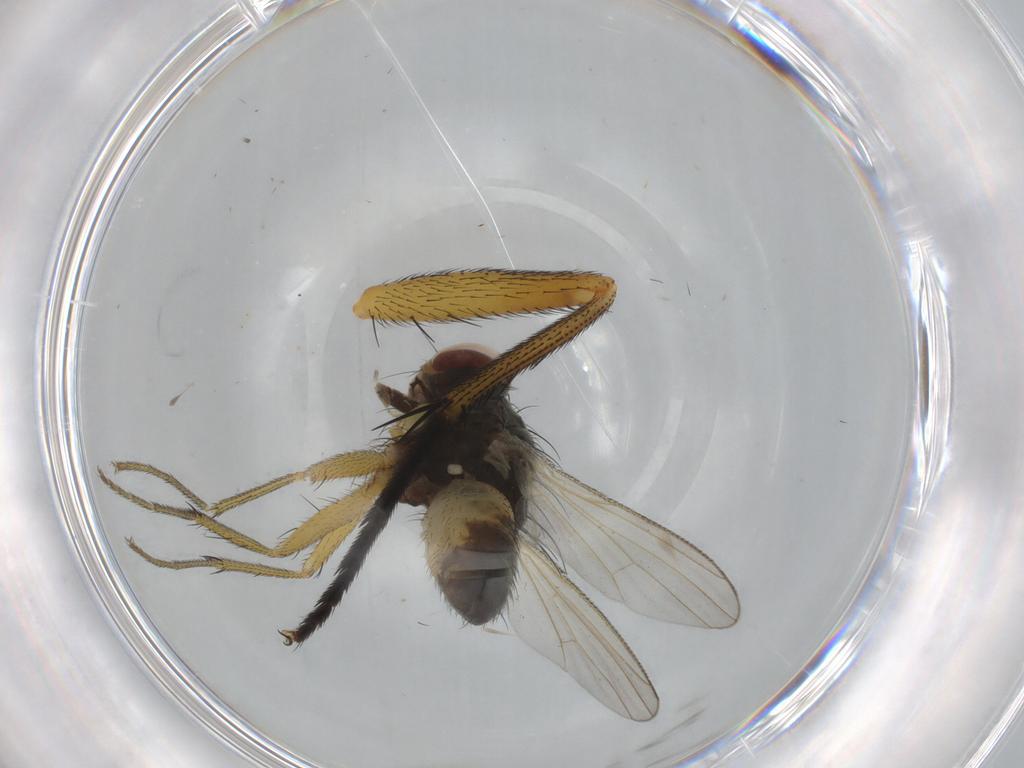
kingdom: Animalia
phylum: Arthropoda
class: Insecta
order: Diptera
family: Muscidae
